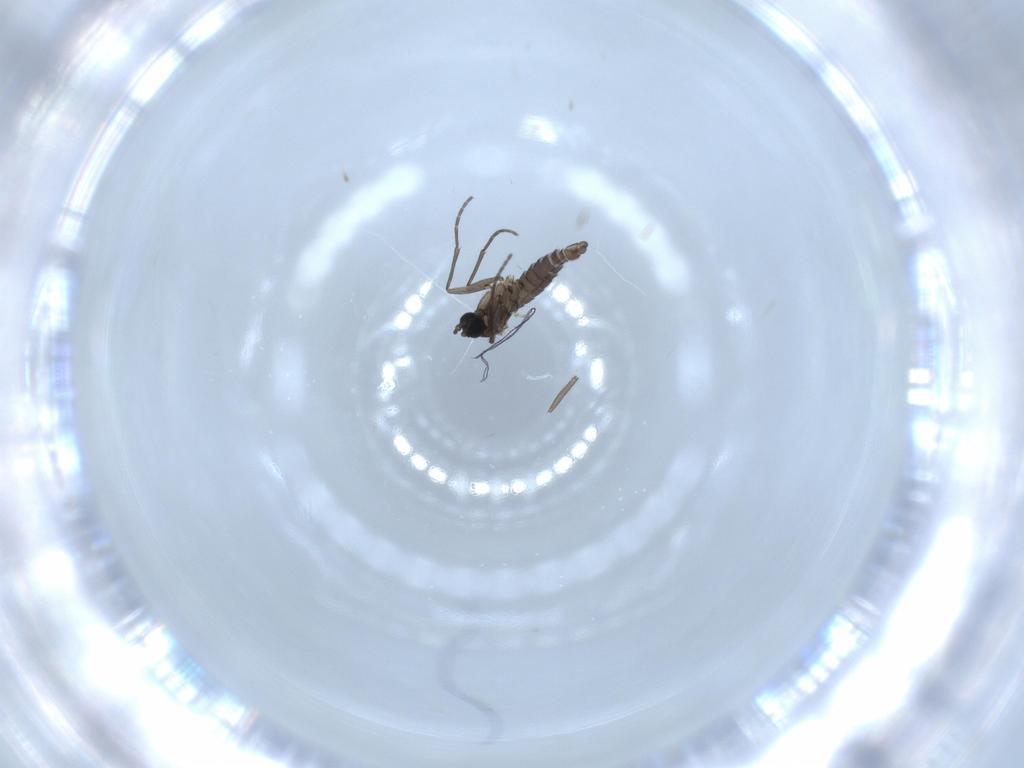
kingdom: Animalia
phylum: Arthropoda
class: Insecta
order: Diptera
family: Sciaridae
